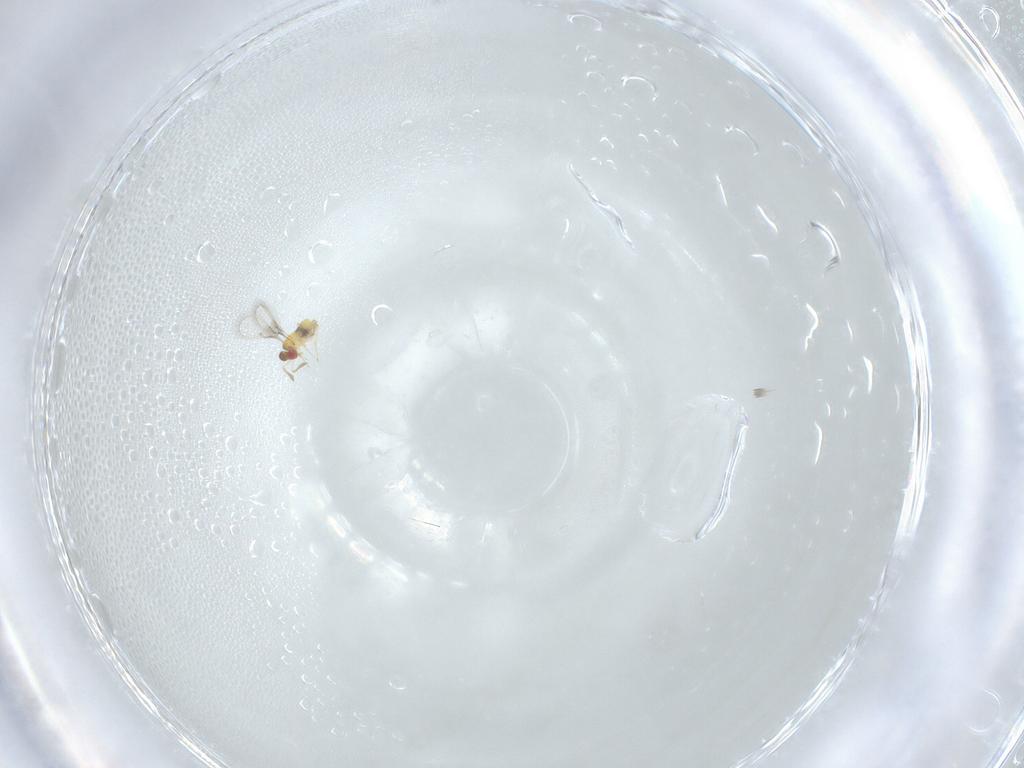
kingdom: Animalia
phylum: Arthropoda
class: Insecta
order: Hymenoptera
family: Trichogrammatidae
